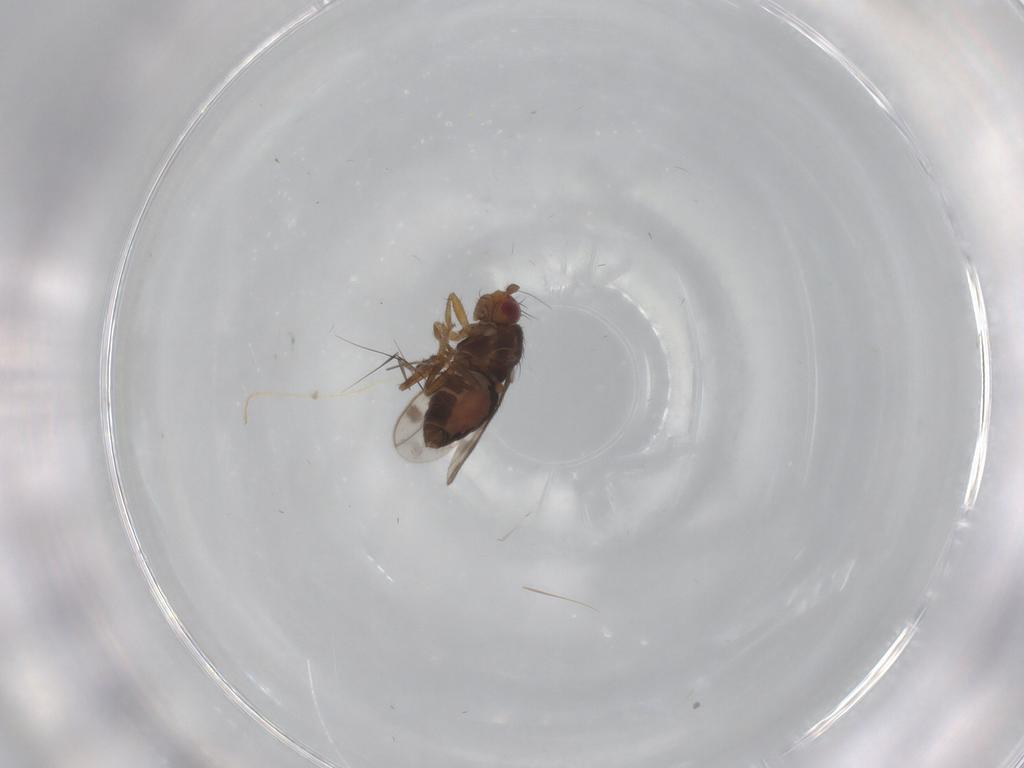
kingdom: Animalia
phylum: Arthropoda
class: Insecta
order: Diptera
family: Sphaeroceridae
